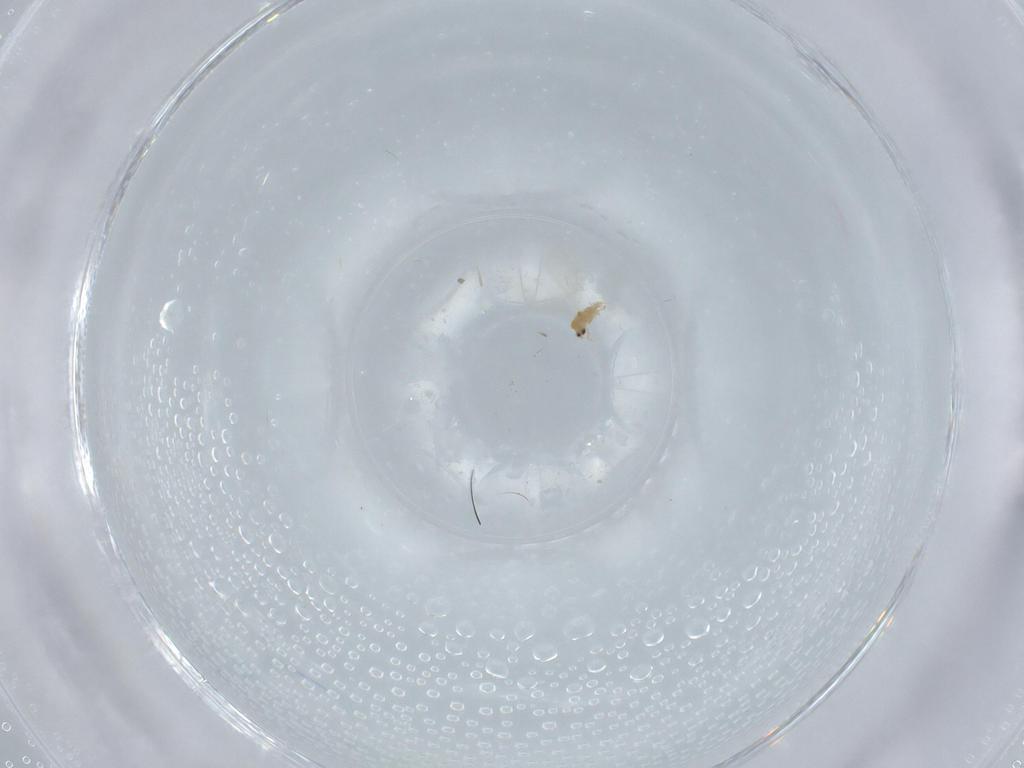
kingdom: Animalia
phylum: Arthropoda
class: Insecta
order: Hemiptera
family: Diaspididae
